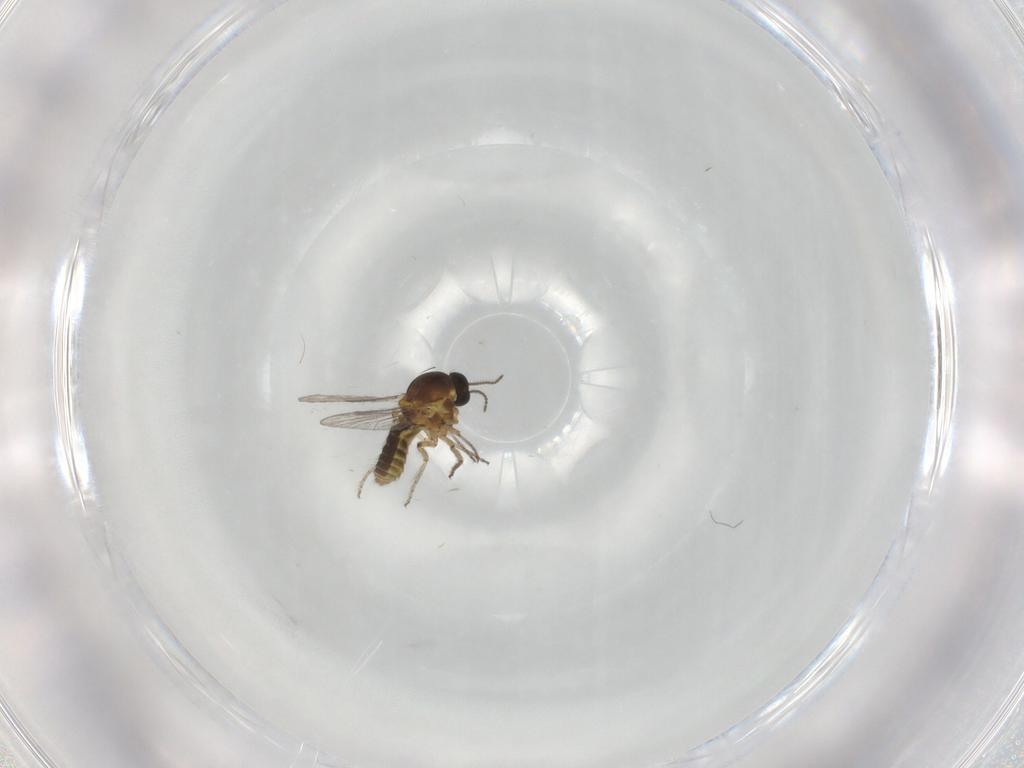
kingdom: Animalia
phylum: Arthropoda
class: Insecta
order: Diptera
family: Ceratopogonidae
